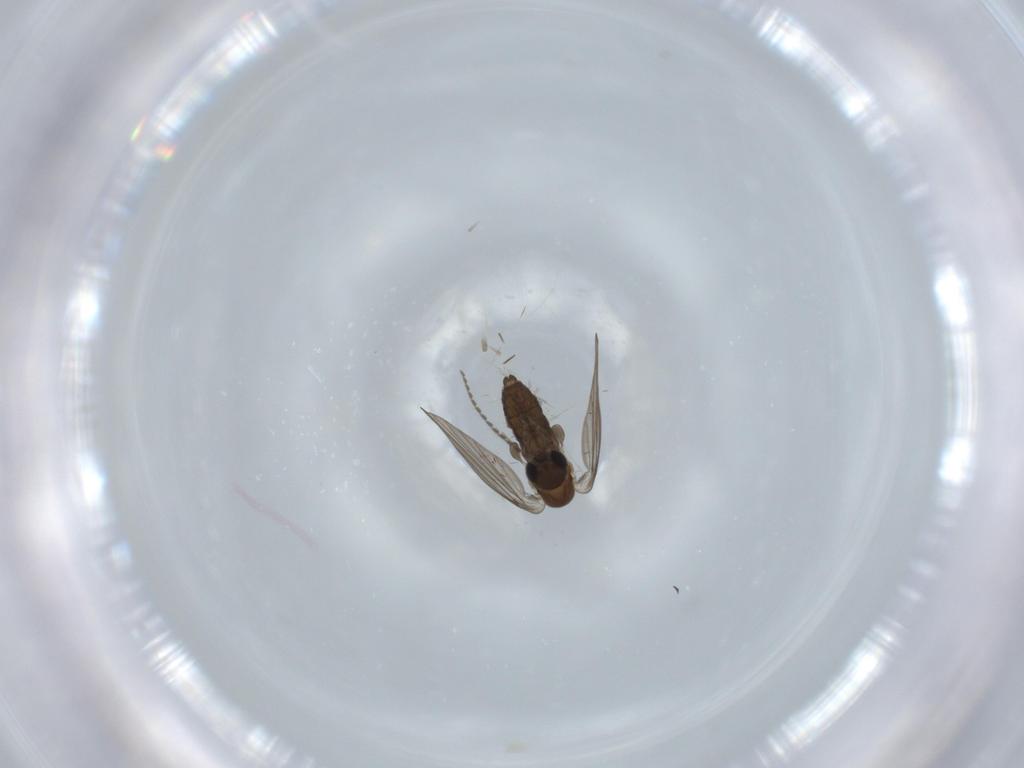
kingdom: Animalia
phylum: Arthropoda
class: Insecta
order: Diptera
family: Psychodidae
